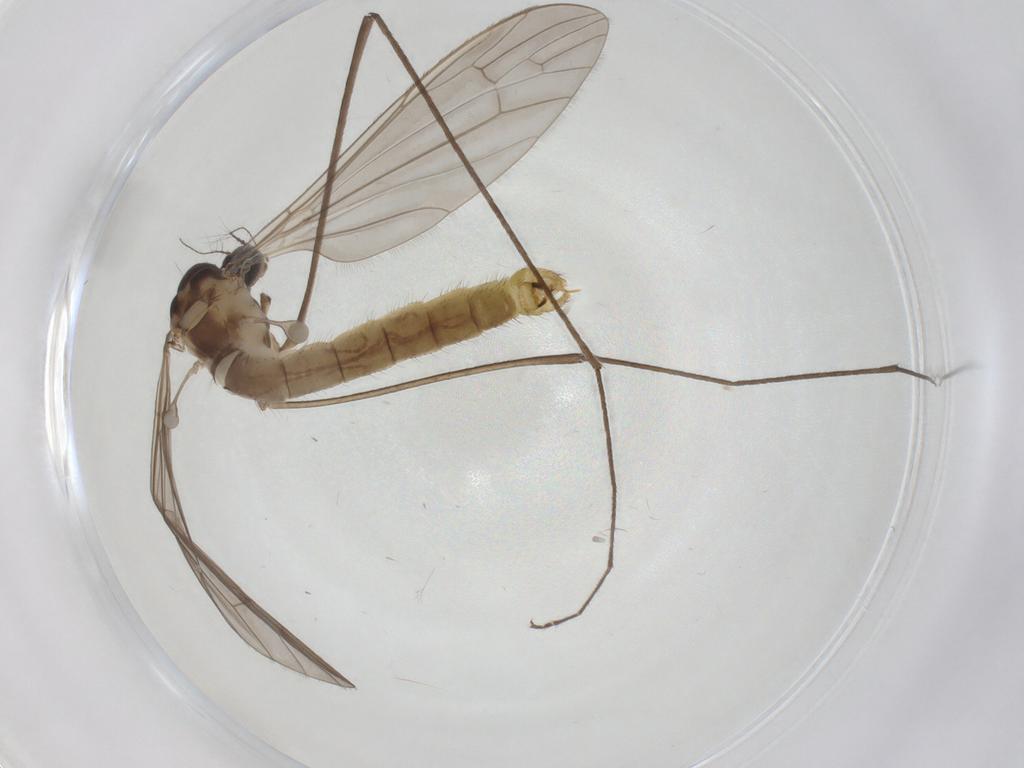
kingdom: Animalia
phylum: Arthropoda
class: Insecta
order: Diptera
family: Limoniidae
